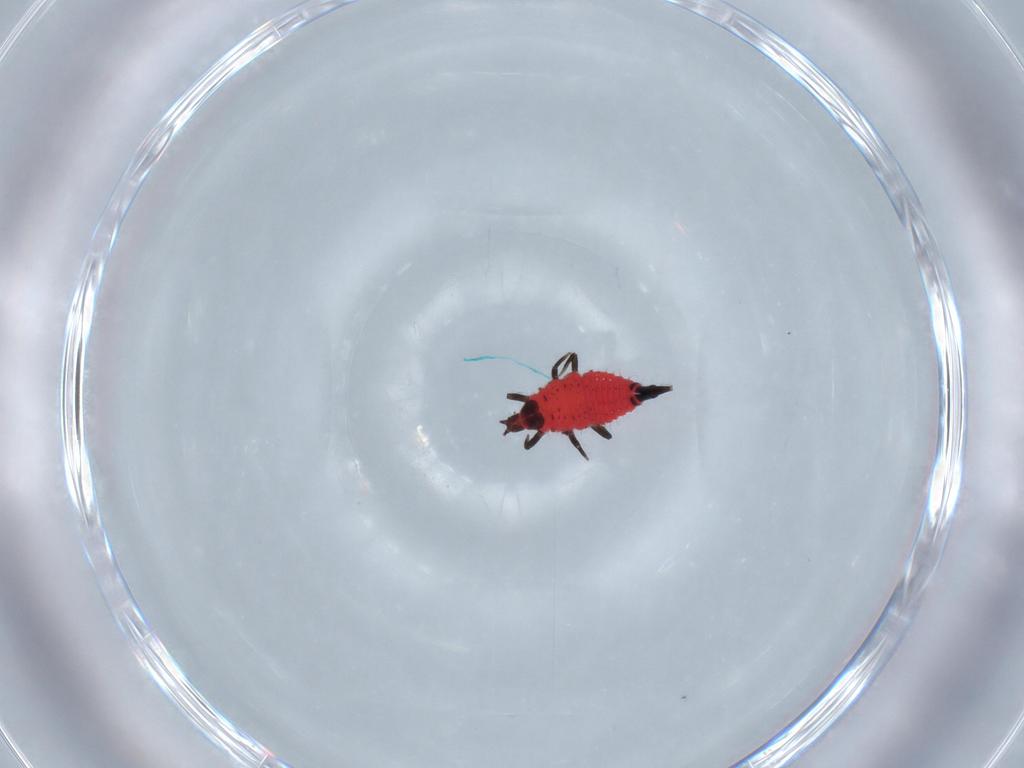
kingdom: Animalia
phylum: Arthropoda
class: Insecta
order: Thysanoptera
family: Phlaeothripidae
